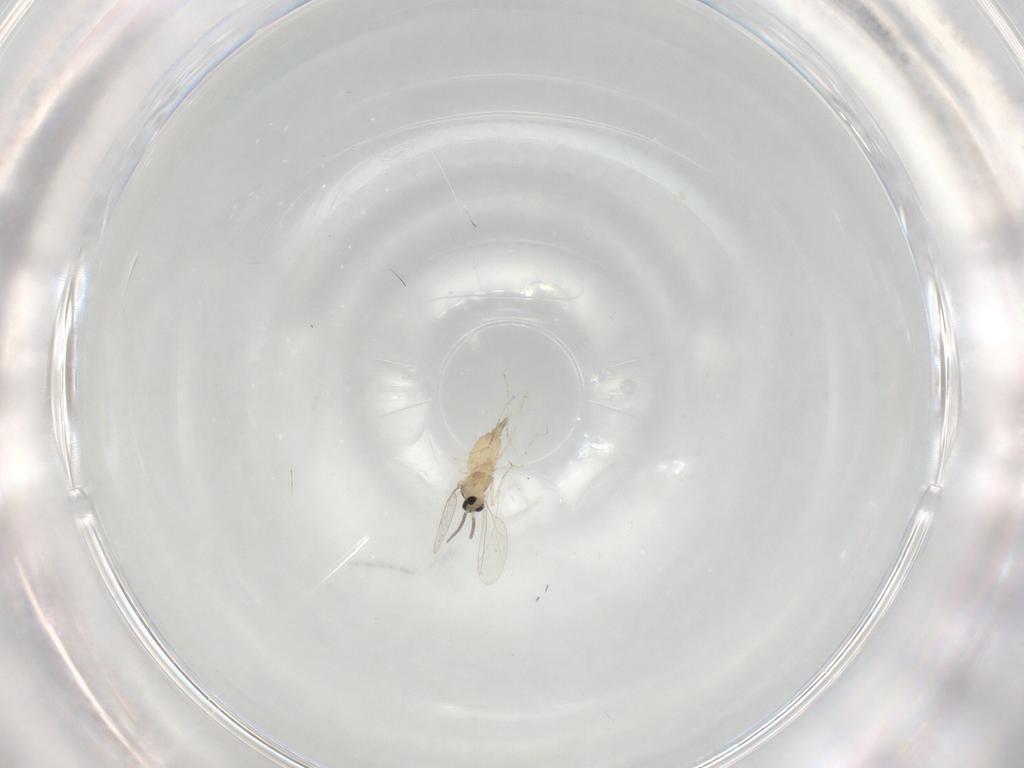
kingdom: Animalia
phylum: Arthropoda
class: Insecta
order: Diptera
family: Cecidomyiidae
